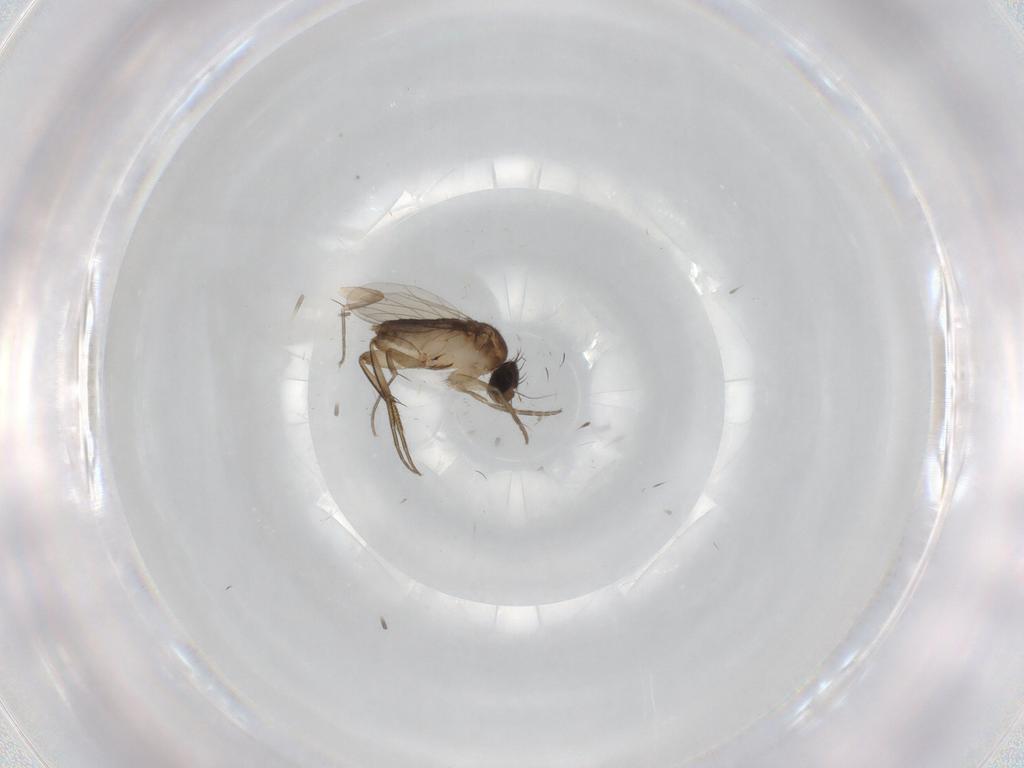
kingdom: Animalia
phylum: Arthropoda
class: Insecta
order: Diptera
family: Phoridae
